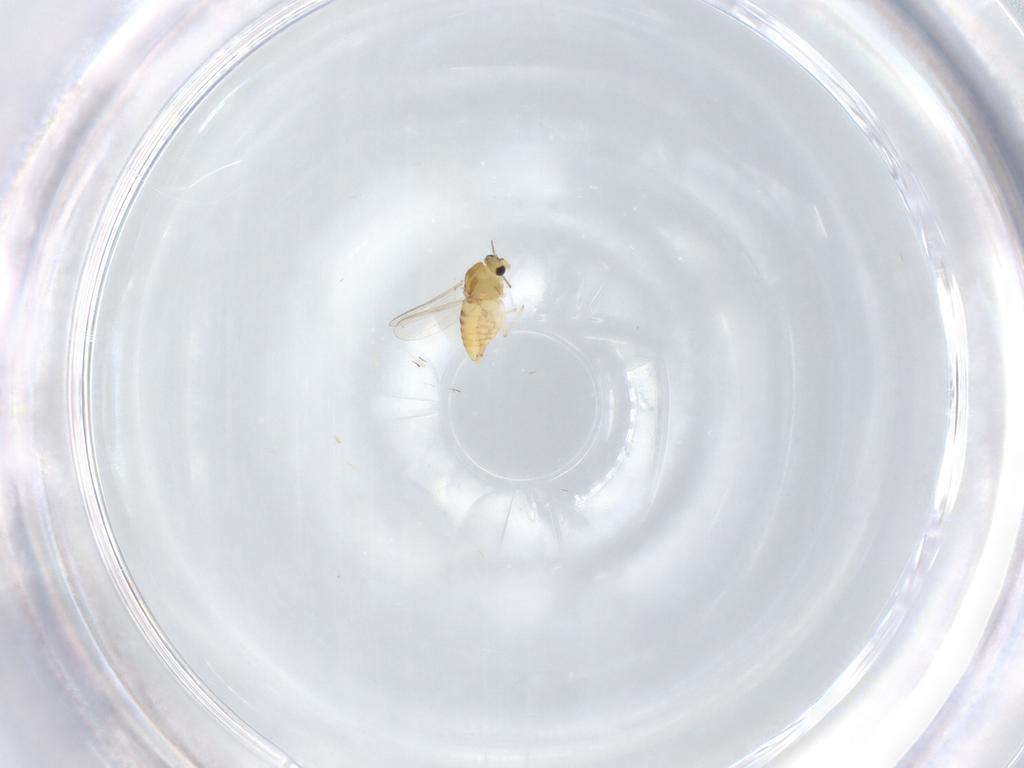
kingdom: Animalia
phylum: Arthropoda
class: Insecta
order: Diptera
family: Chironomidae
